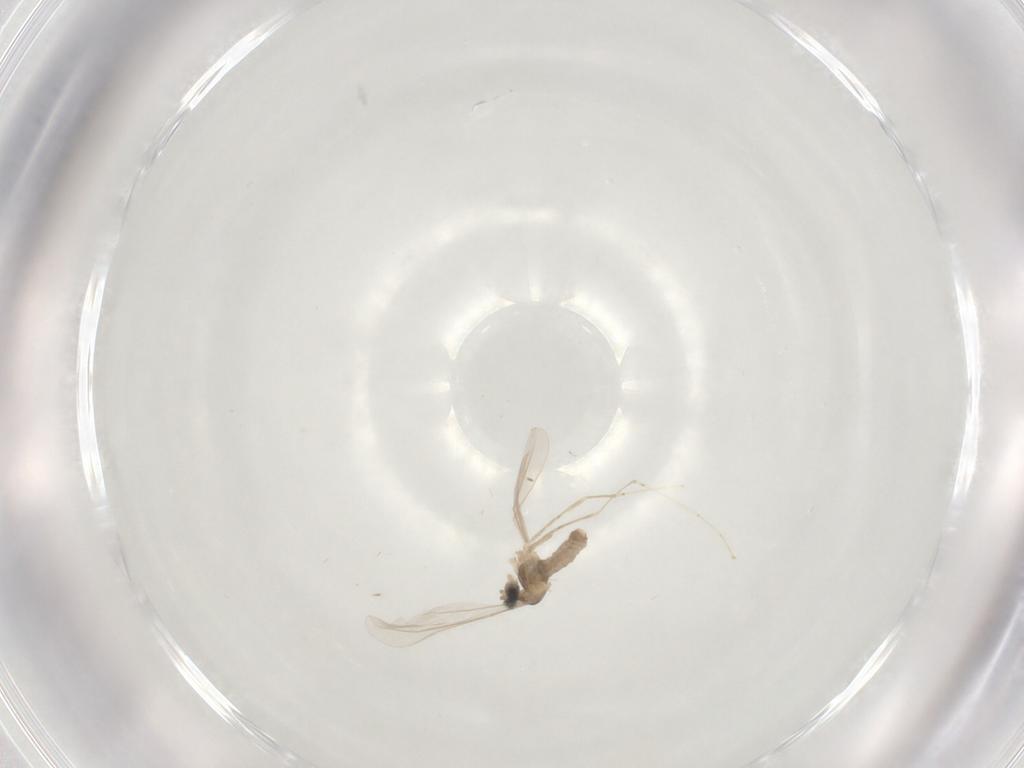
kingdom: Animalia
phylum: Arthropoda
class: Insecta
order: Diptera
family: Cecidomyiidae
